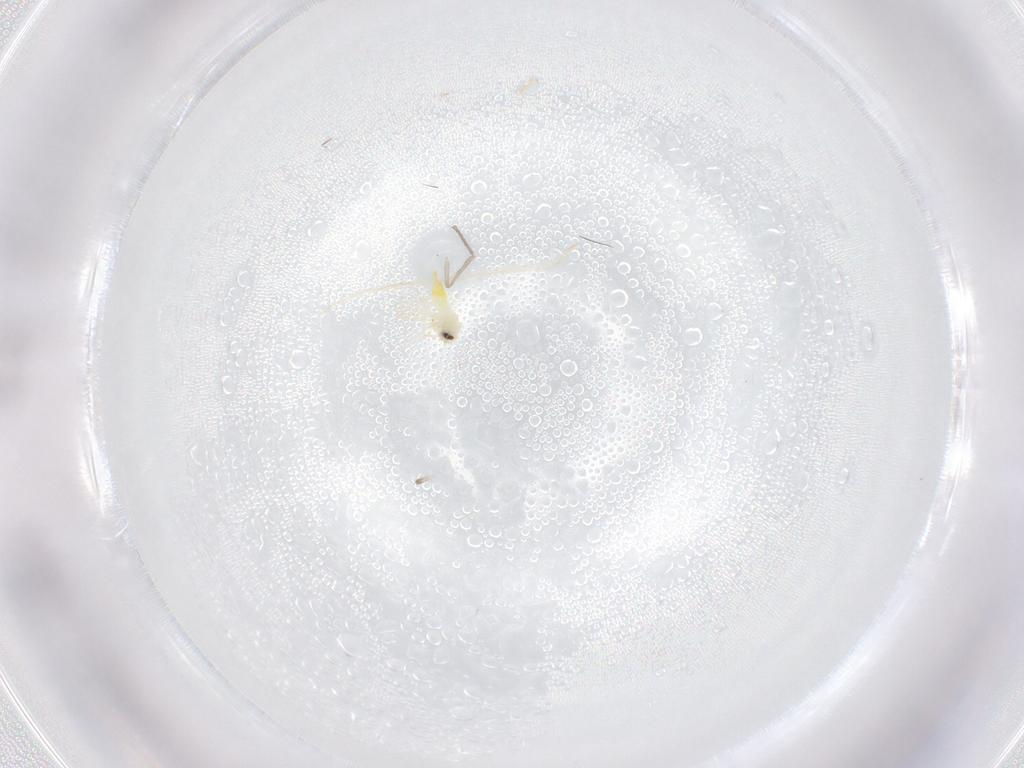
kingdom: Animalia
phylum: Arthropoda
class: Insecta
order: Hemiptera
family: Aleyrodidae
